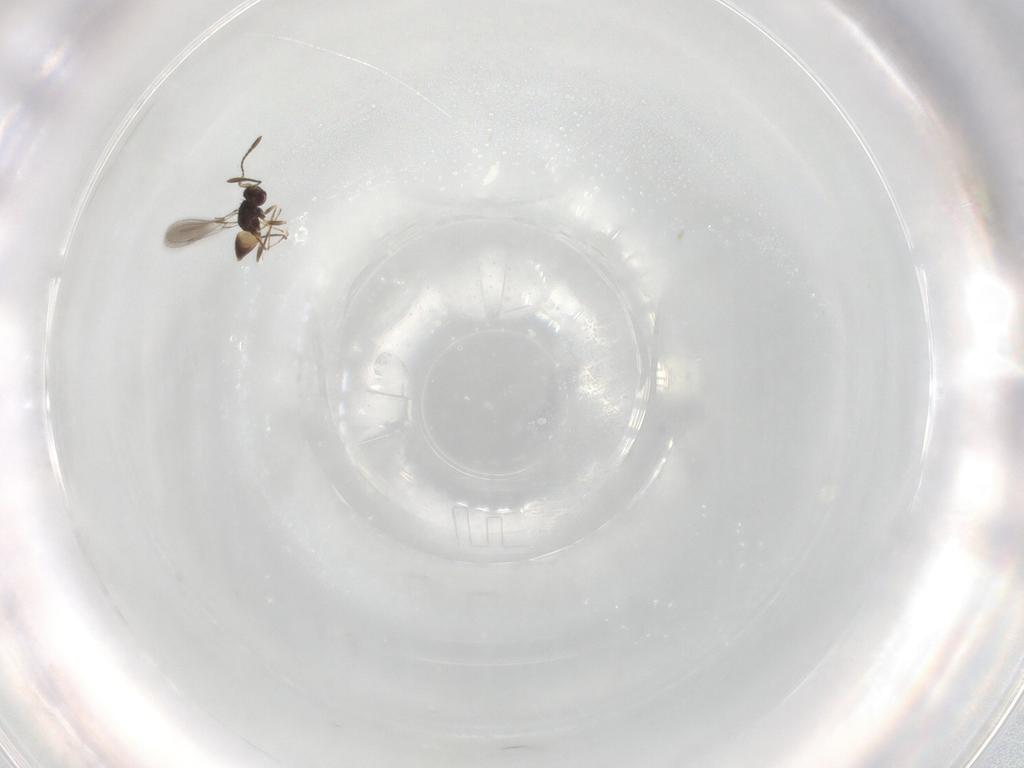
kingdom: Animalia
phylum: Arthropoda
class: Insecta
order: Hymenoptera
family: Mymaridae
